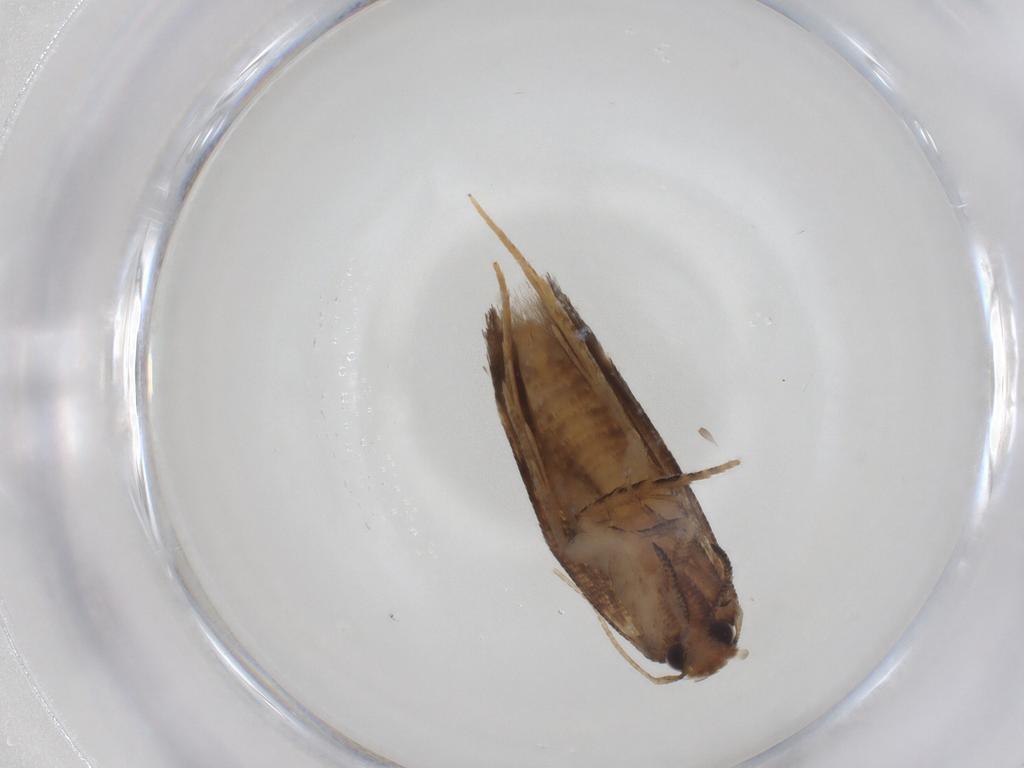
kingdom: Animalia
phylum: Arthropoda
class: Insecta
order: Lepidoptera
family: Gelechiidae
